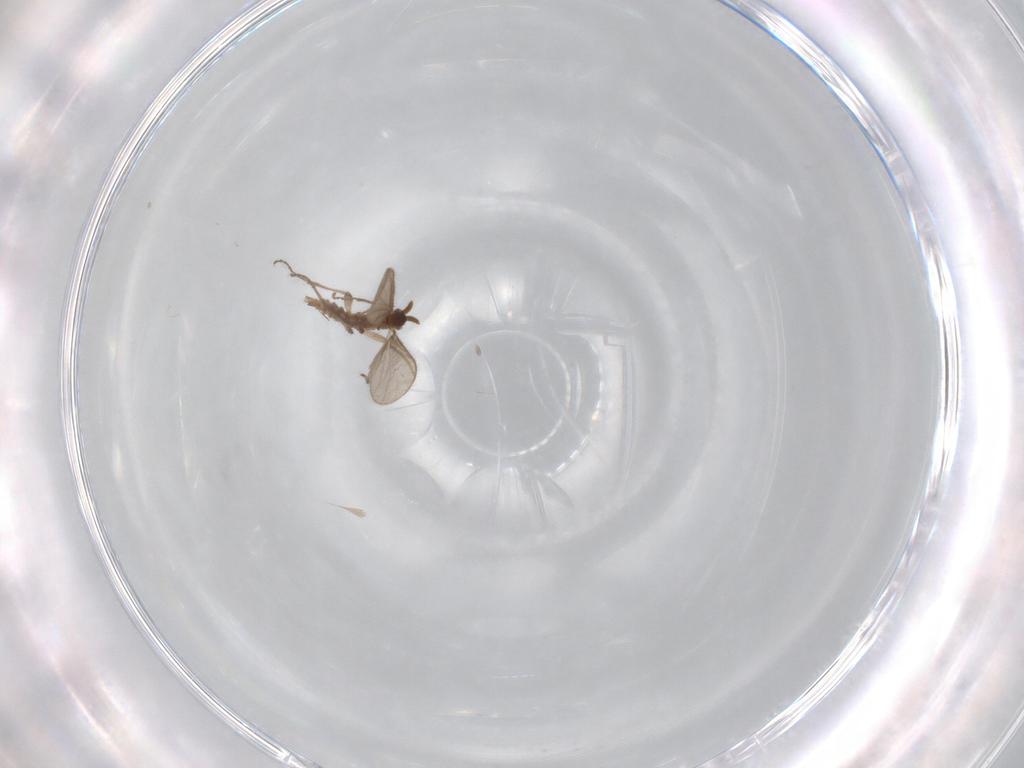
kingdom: Animalia
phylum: Arthropoda
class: Insecta
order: Diptera
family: Sciaridae
